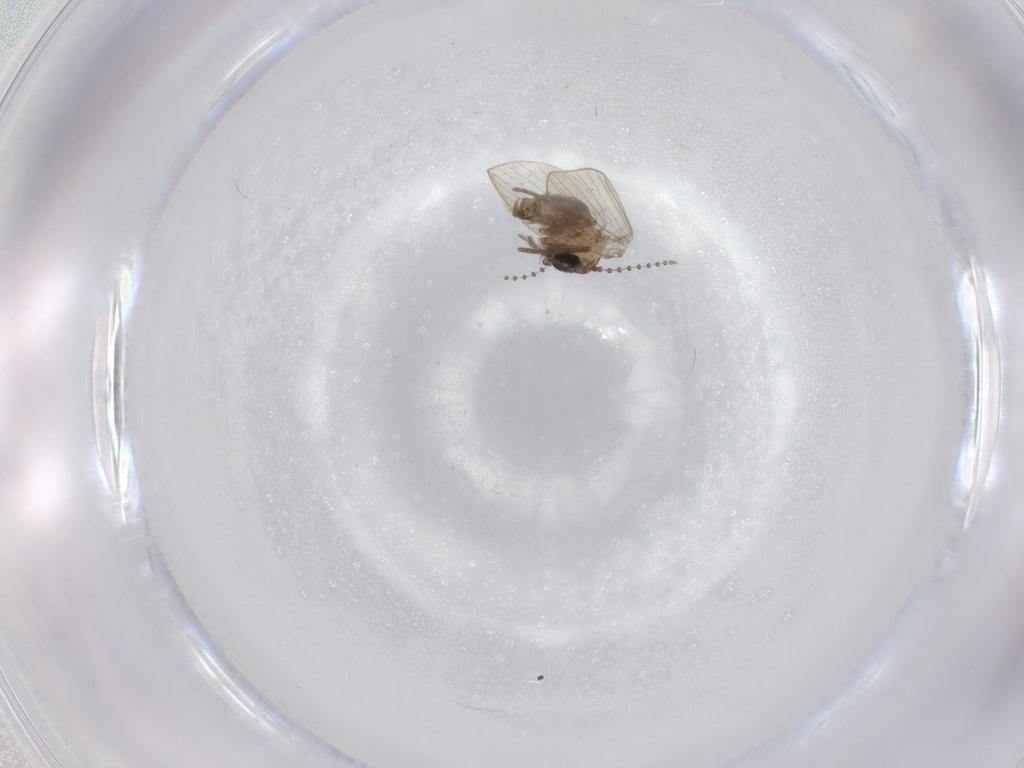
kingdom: Animalia
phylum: Arthropoda
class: Insecta
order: Diptera
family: Psychodidae
